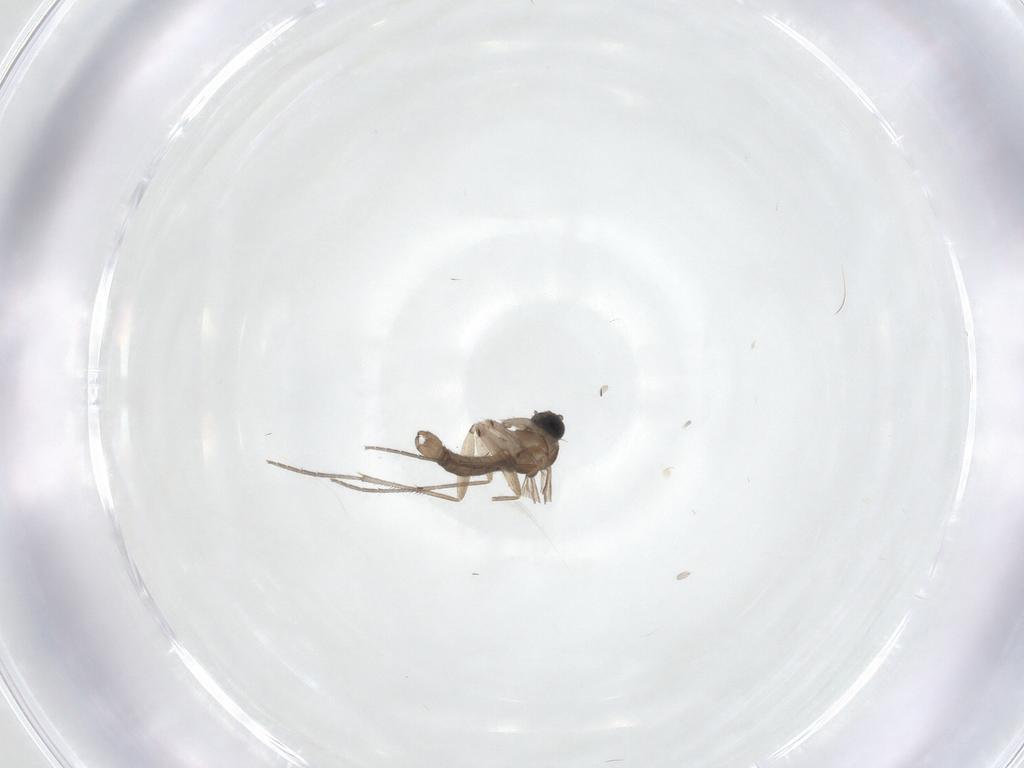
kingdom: Animalia
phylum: Arthropoda
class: Insecta
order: Diptera
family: Sciaridae
